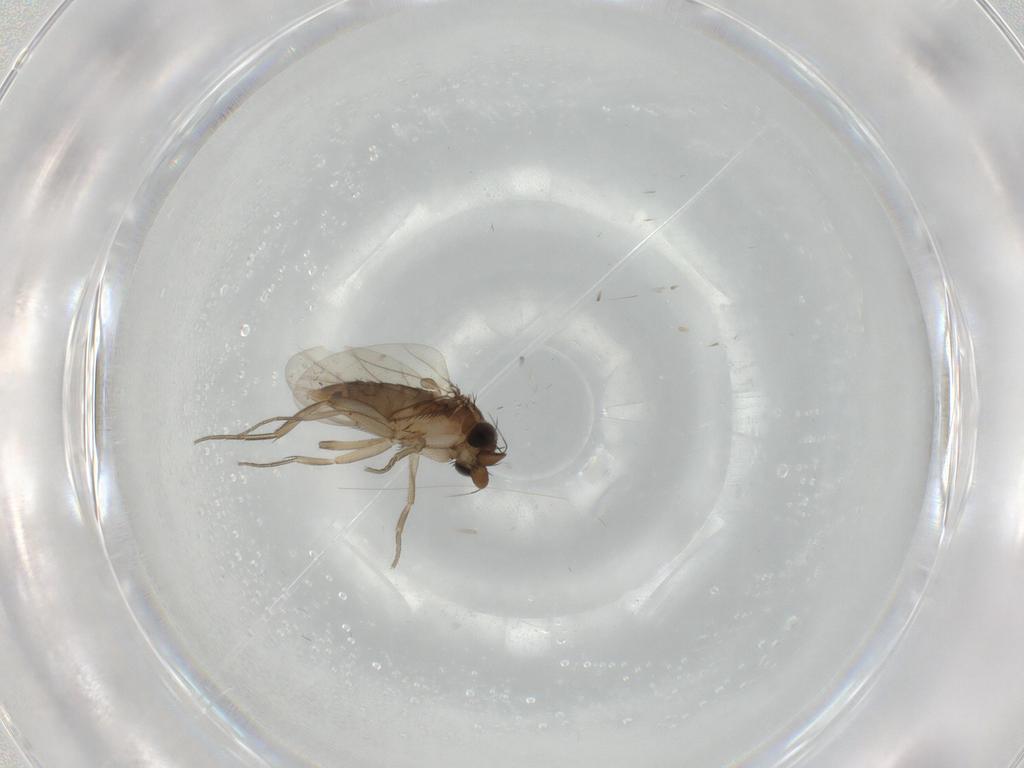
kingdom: Animalia
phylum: Arthropoda
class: Insecta
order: Diptera
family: Phoridae
